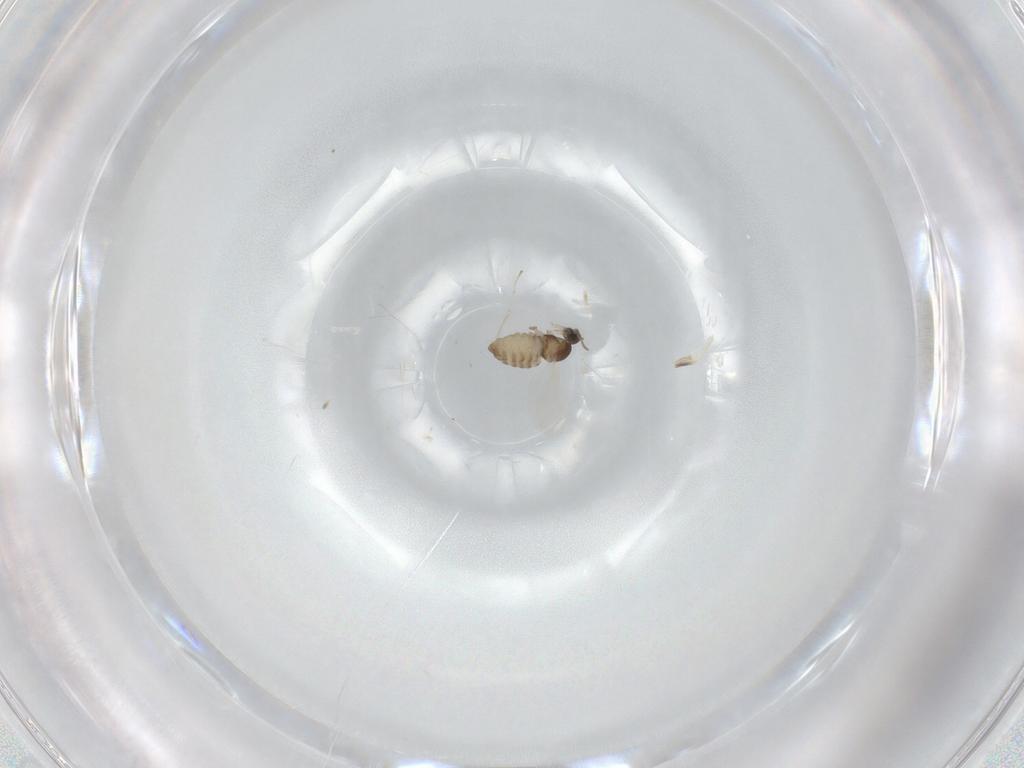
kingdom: Animalia
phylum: Arthropoda
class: Insecta
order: Diptera
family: Cecidomyiidae
